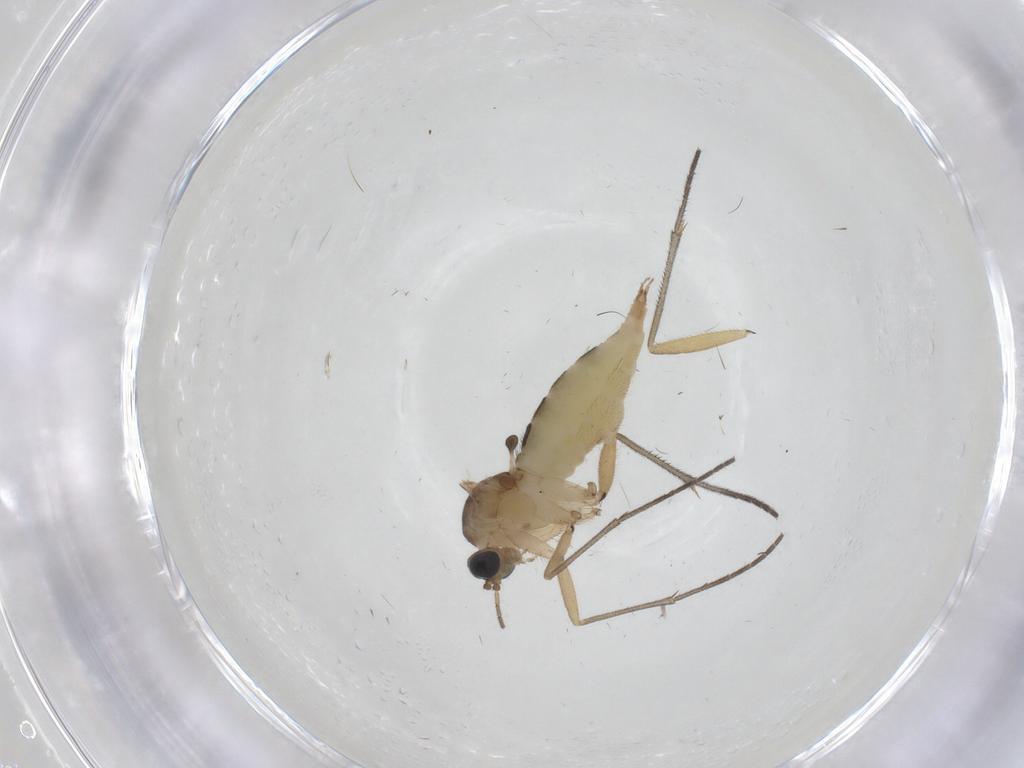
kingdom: Animalia
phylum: Arthropoda
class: Insecta
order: Diptera
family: Sciaridae
